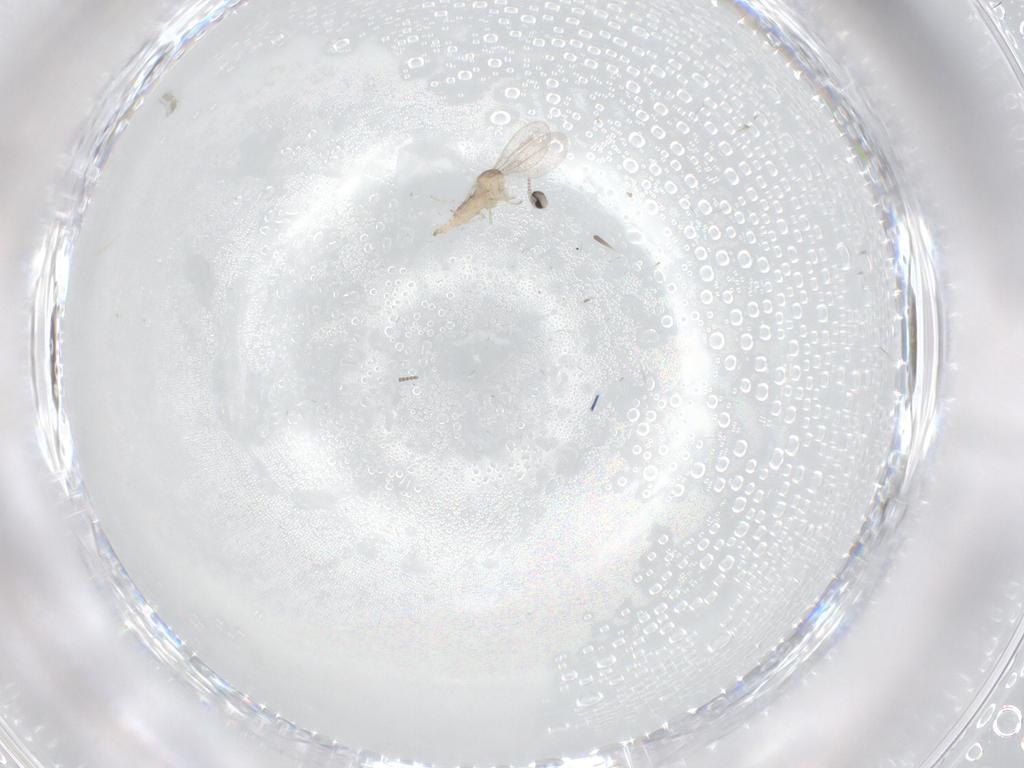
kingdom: Animalia
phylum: Arthropoda
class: Insecta
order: Diptera
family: Cecidomyiidae
